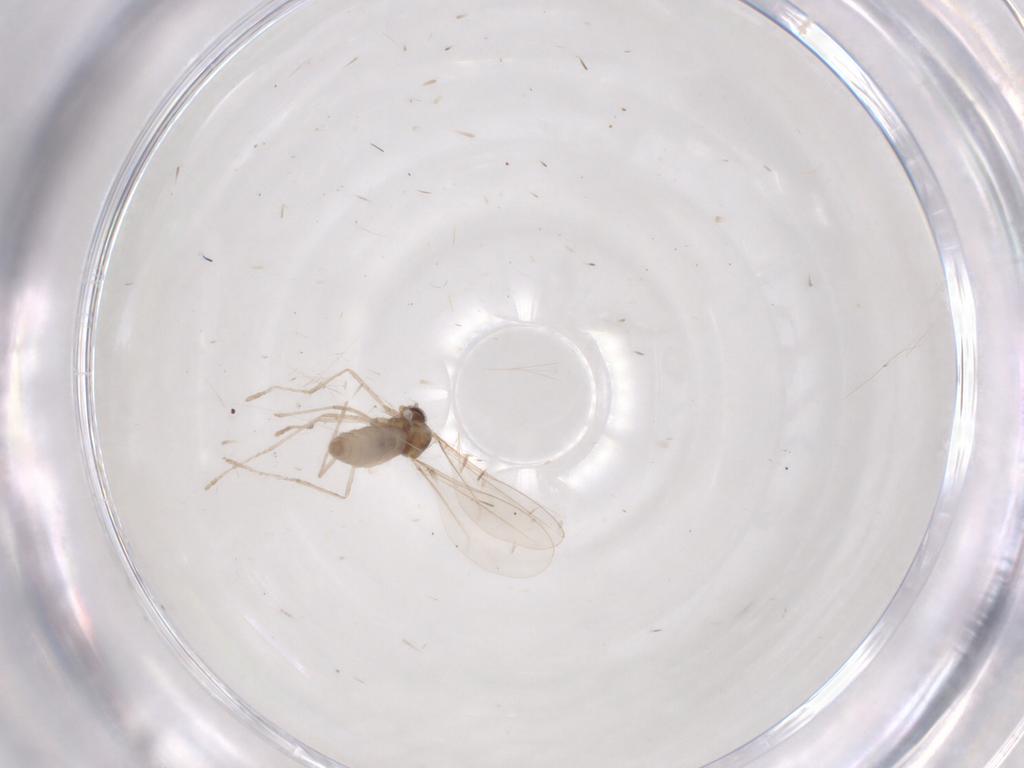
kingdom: Animalia
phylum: Arthropoda
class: Insecta
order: Diptera
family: Cecidomyiidae
